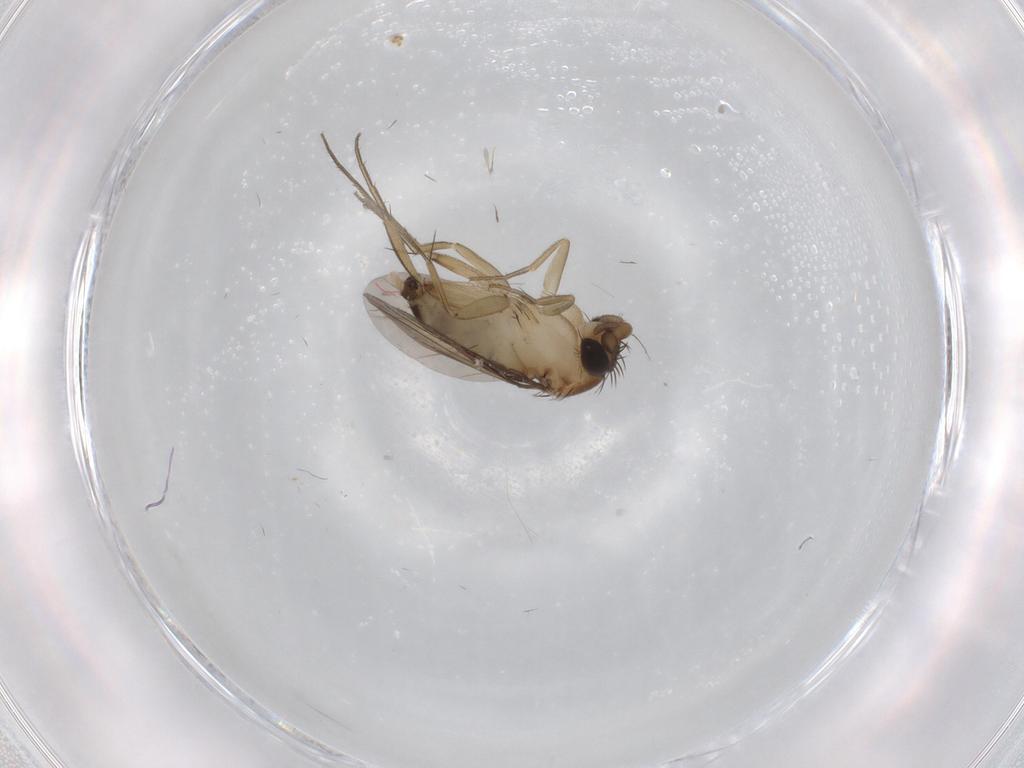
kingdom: Animalia
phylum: Arthropoda
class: Insecta
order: Diptera
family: Phoridae
